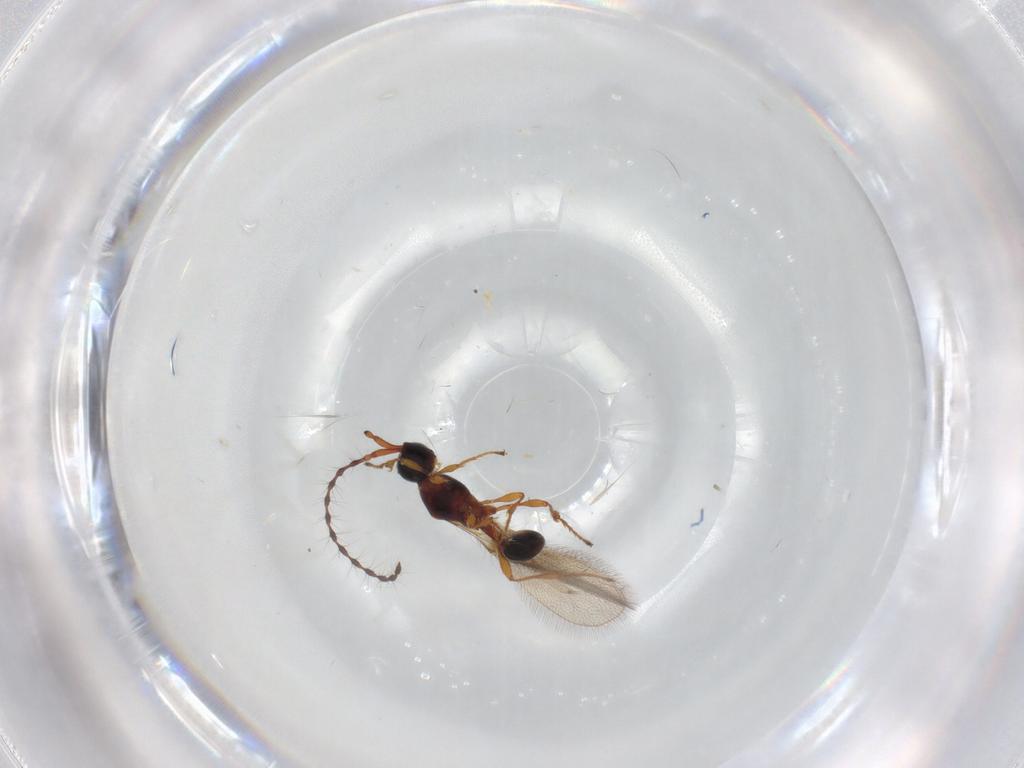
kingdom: Animalia
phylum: Arthropoda
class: Insecta
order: Hymenoptera
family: Diapriidae
